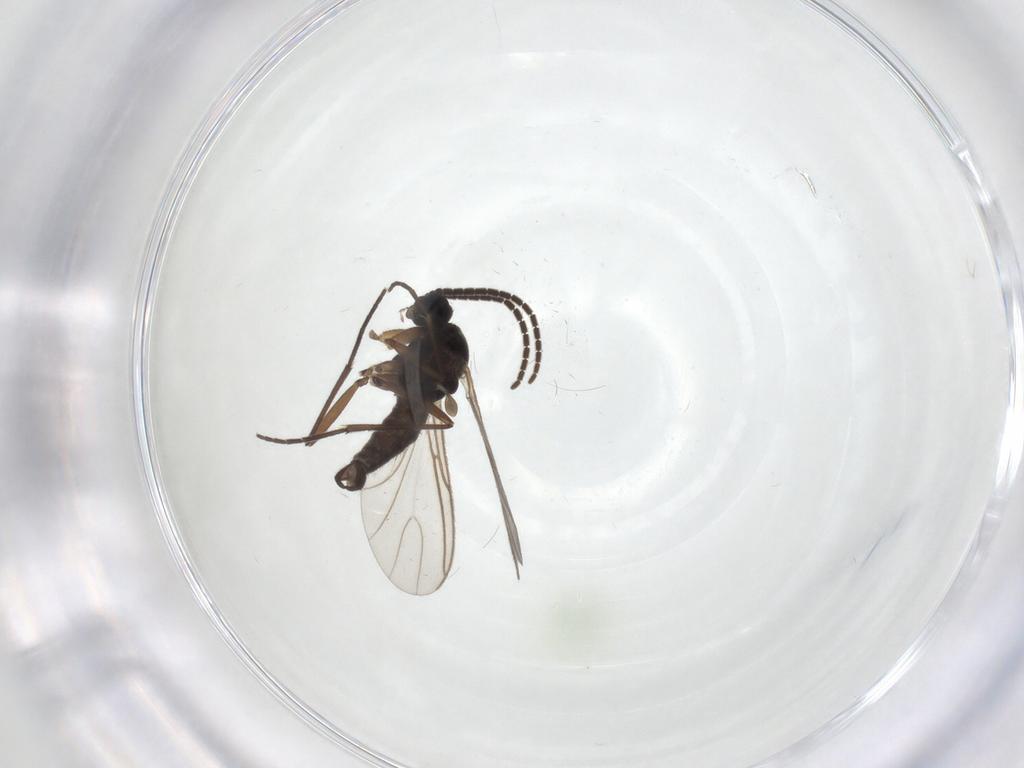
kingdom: Animalia
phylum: Arthropoda
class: Insecta
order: Diptera
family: Sciaridae
